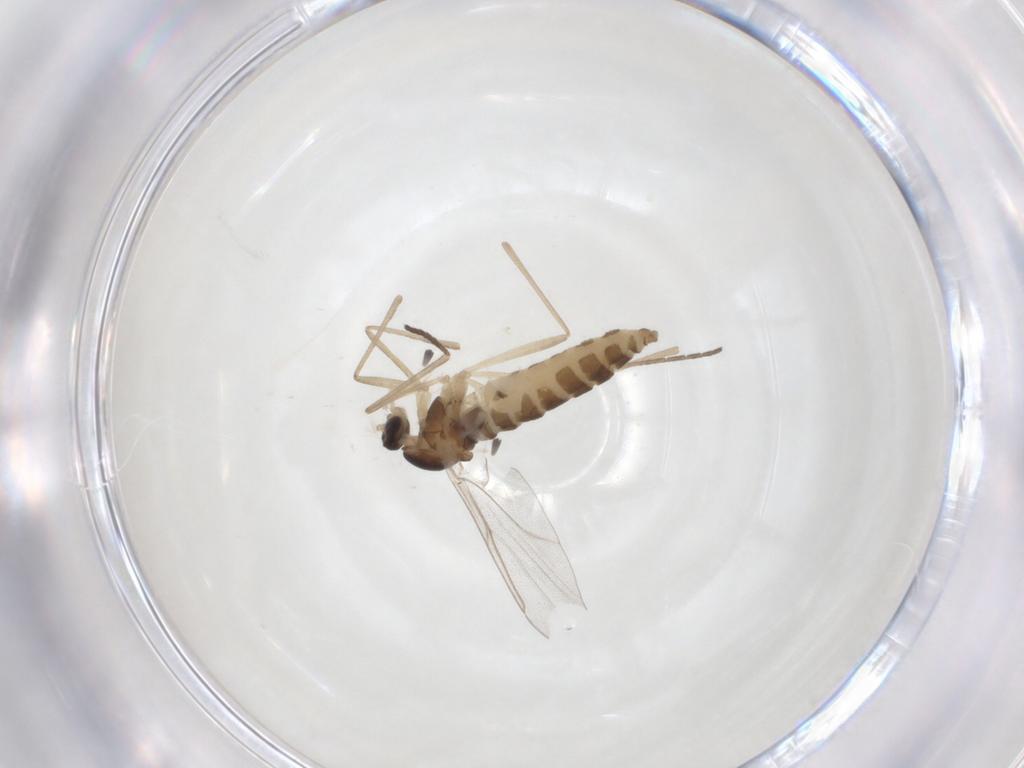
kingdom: Animalia
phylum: Arthropoda
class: Insecta
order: Diptera
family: Cecidomyiidae
